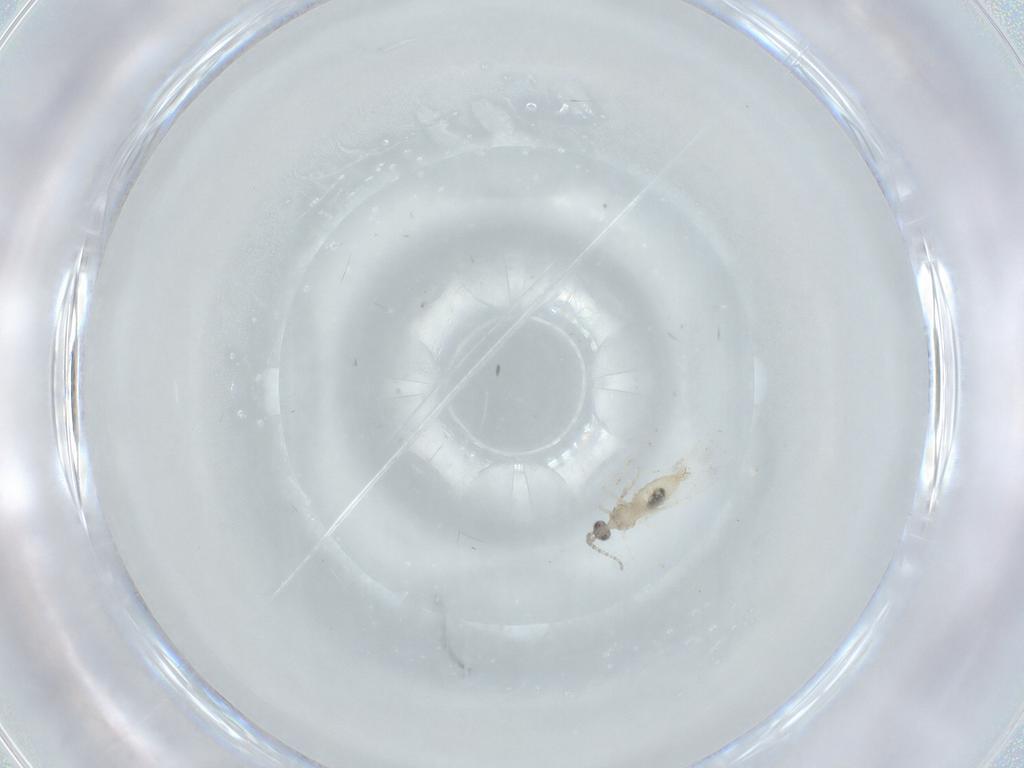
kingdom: Animalia
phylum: Arthropoda
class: Insecta
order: Diptera
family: Cecidomyiidae
